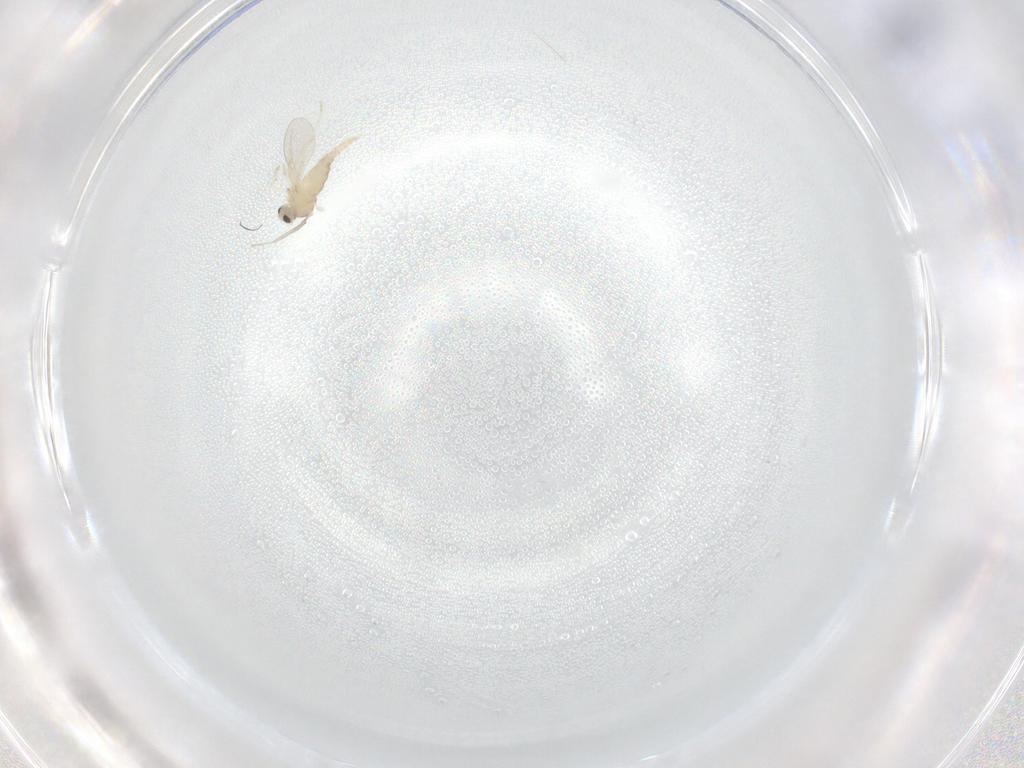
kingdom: Animalia
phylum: Arthropoda
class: Insecta
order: Diptera
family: Cecidomyiidae
